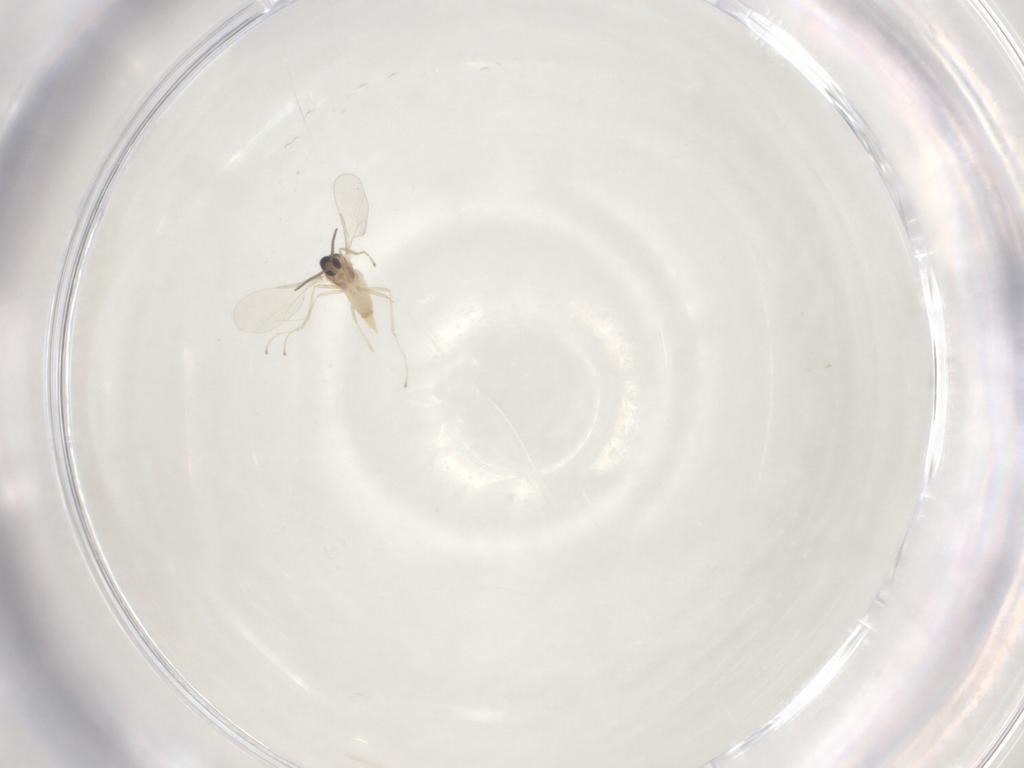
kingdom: Animalia
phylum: Arthropoda
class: Insecta
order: Diptera
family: Cecidomyiidae
